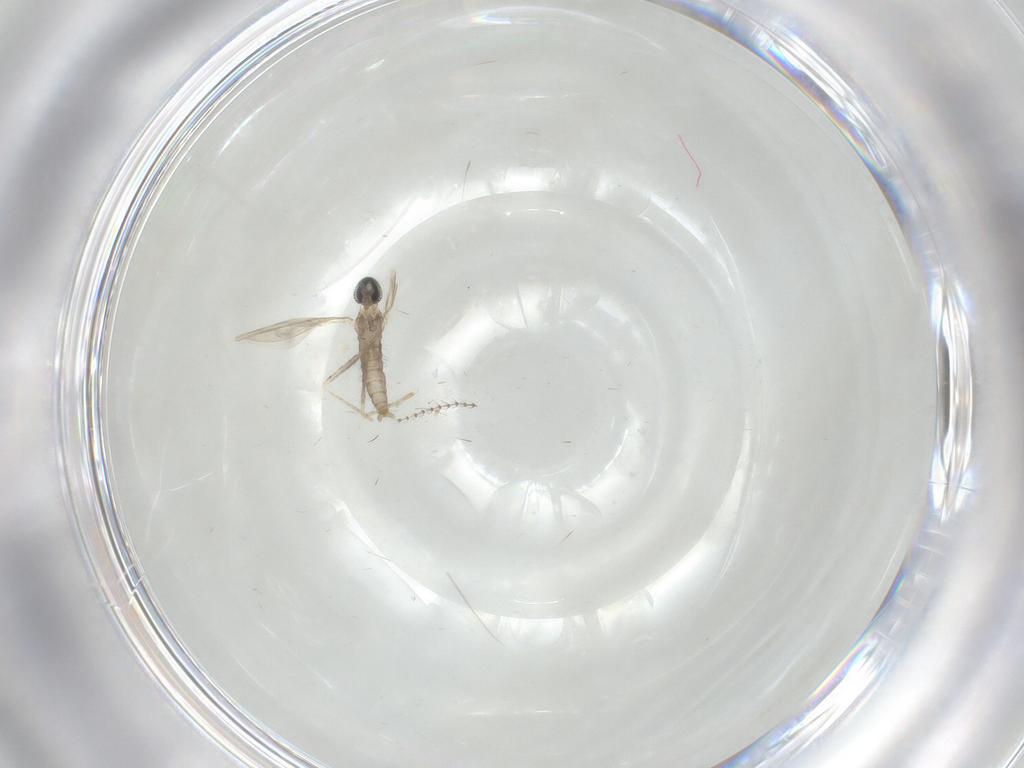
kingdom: Animalia
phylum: Arthropoda
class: Insecta
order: Diptera
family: Cecidomyiidae
